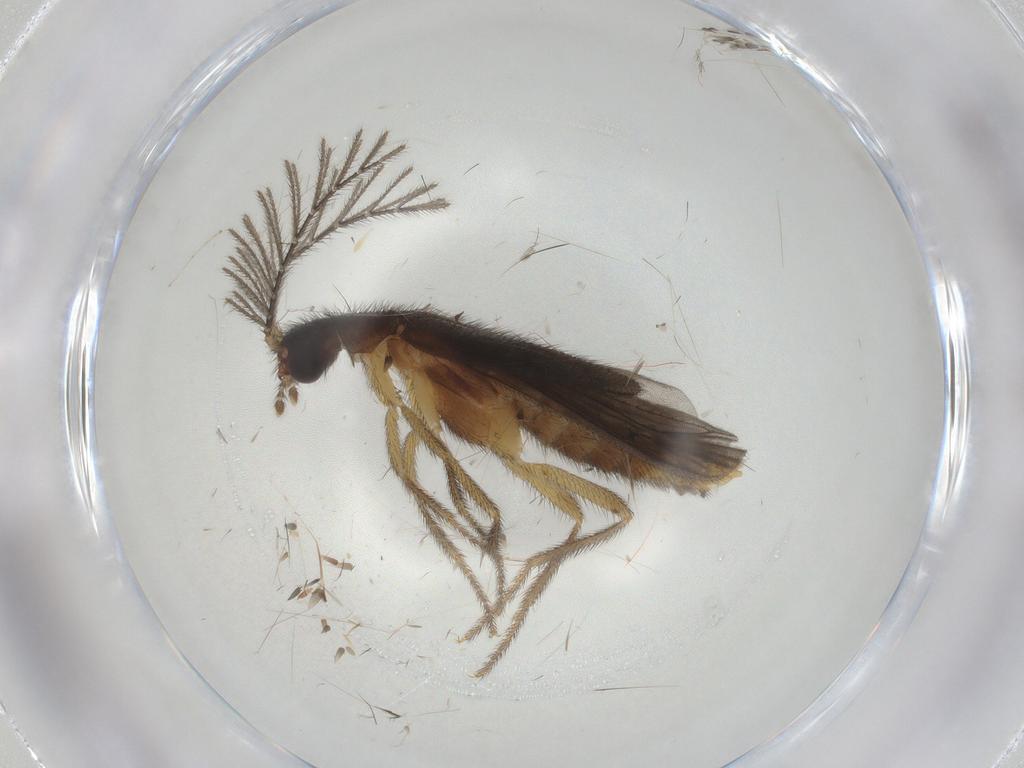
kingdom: Animalia
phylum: Arthropoda
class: Insecta
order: Coleoptera
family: Ptilodactylidae
